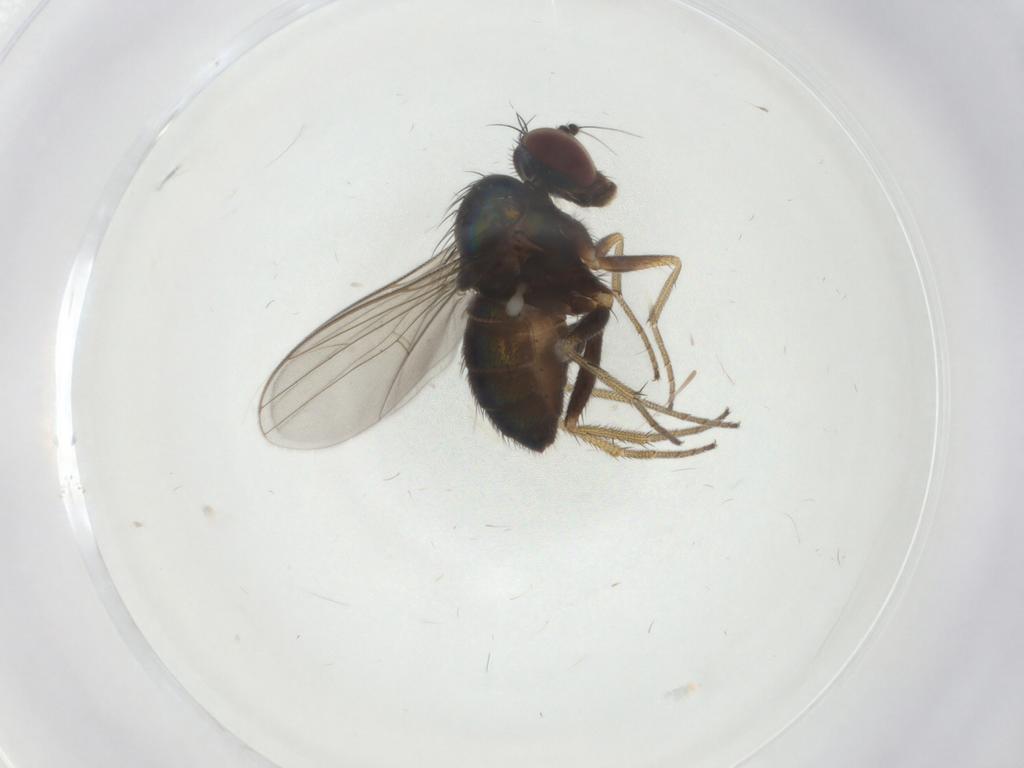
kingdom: Animalia
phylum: Arthropoda
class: Insecta
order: Diptera
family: Dolichopodidae
